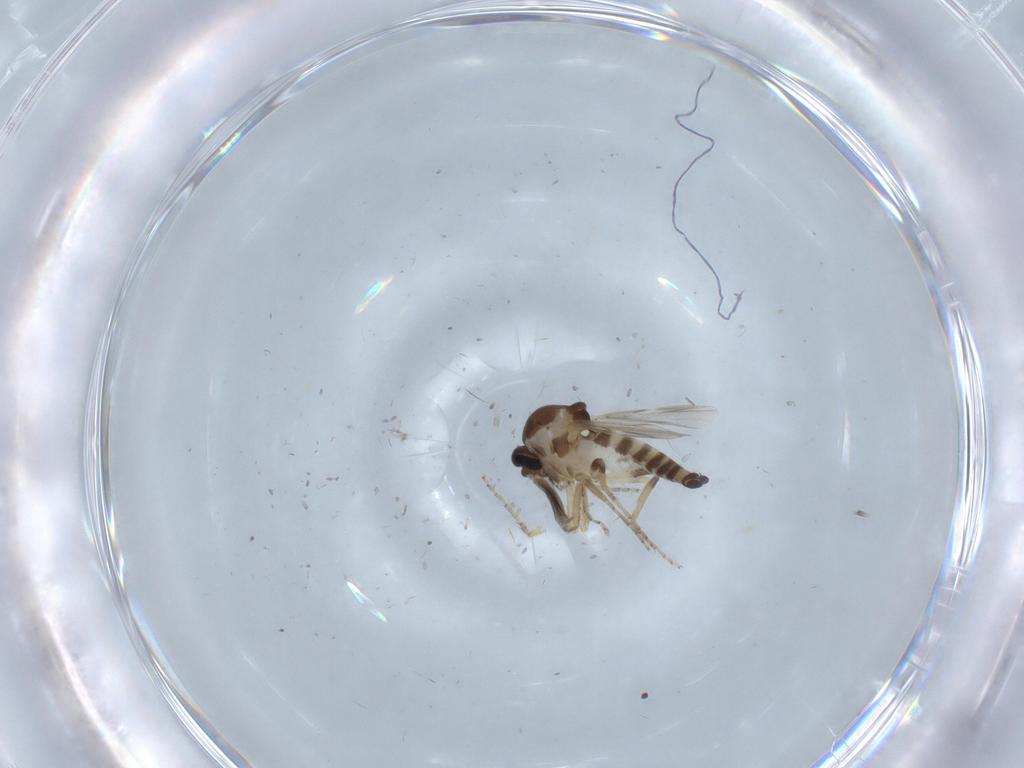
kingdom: Animalia
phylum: Arthropoda
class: Insecta
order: Diptera
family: Ceratopogonidae
